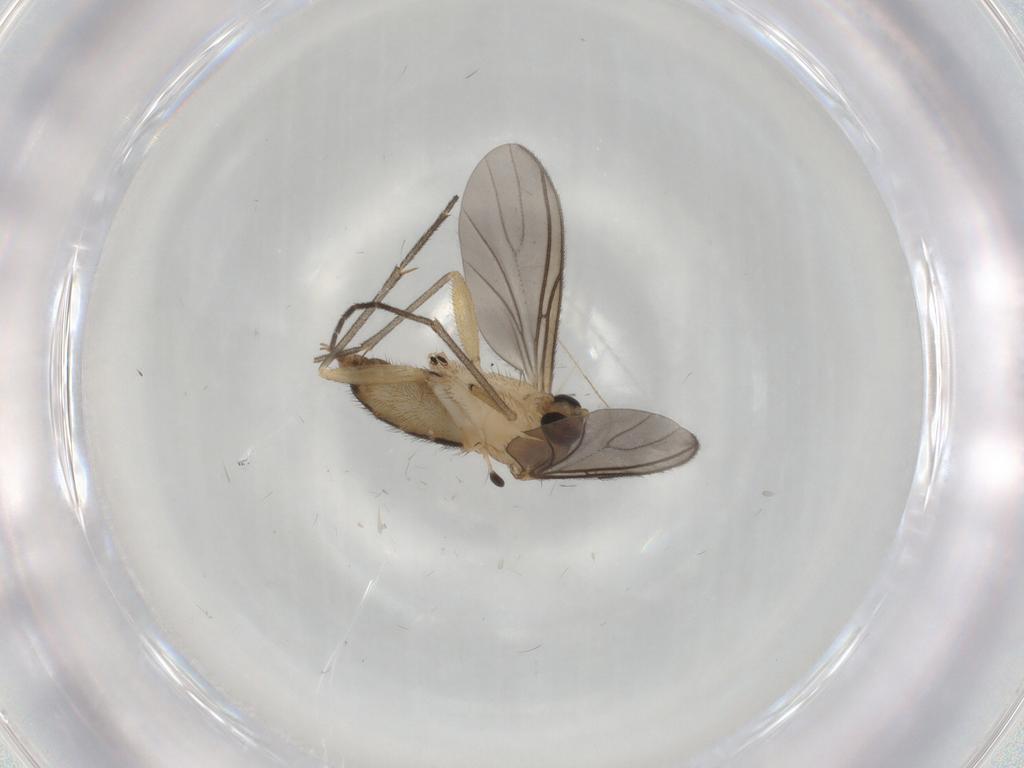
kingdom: Animalia
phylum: Arthropoda
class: Insecta
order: Diptera
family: Sciaridae
